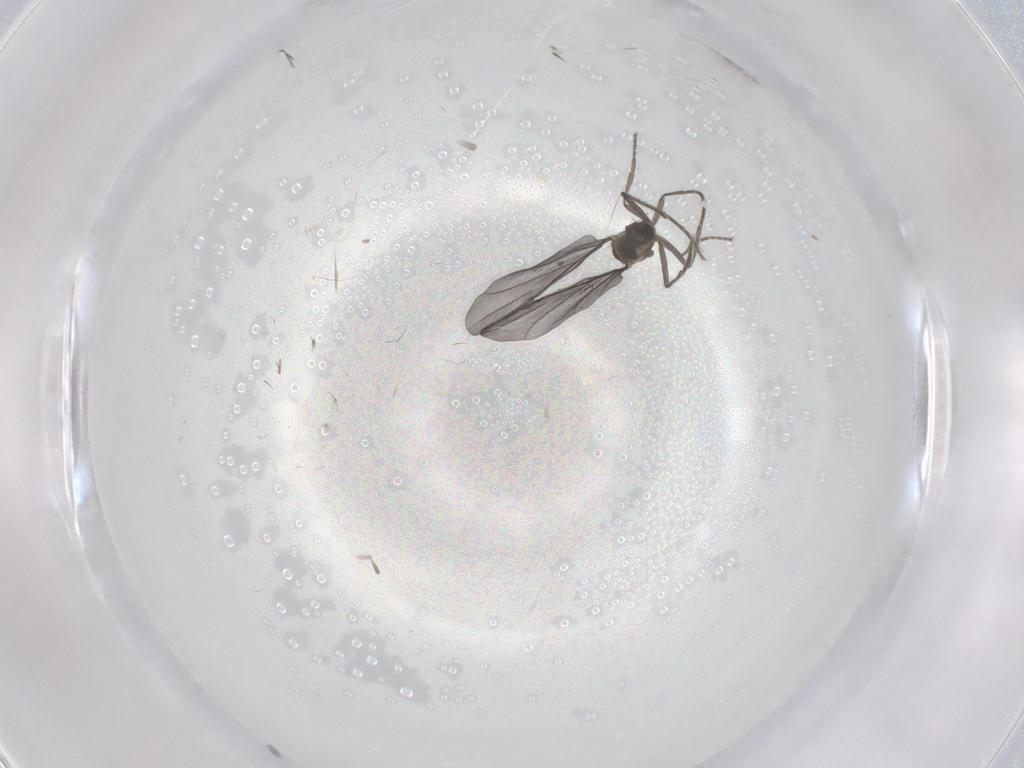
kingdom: Animalia
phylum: Arthropoda
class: Insecta
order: Diptera
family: Phoridae
